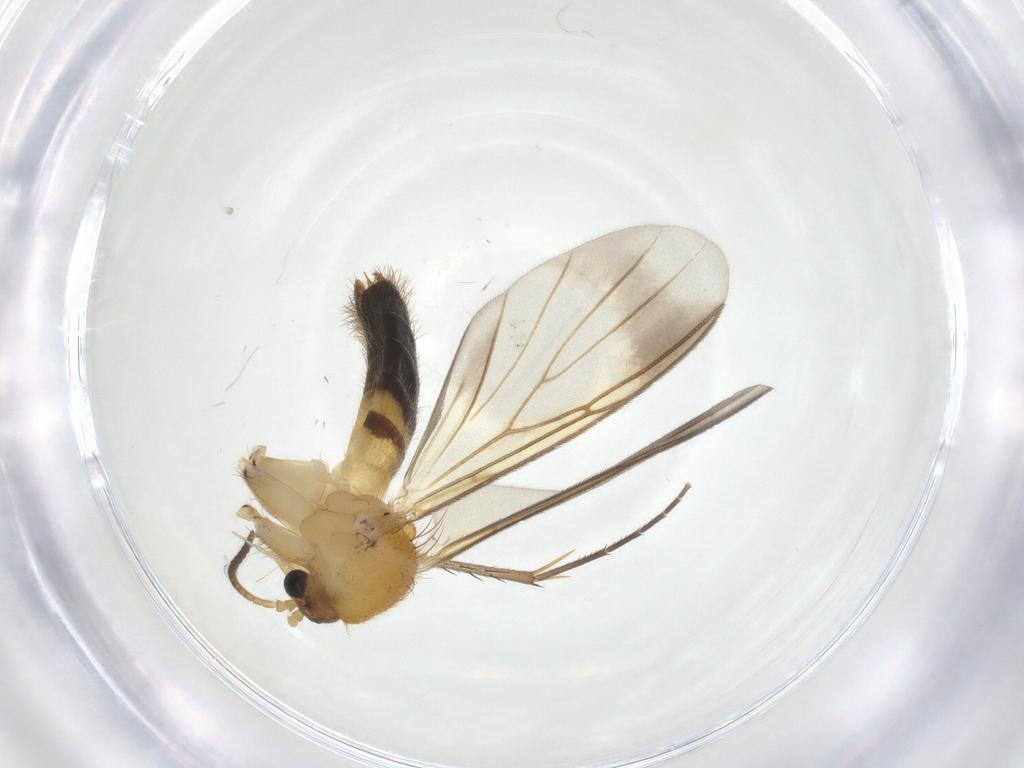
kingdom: Animalia
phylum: Arthropoda
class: Insecta
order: Diptera
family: Mycetophilidae
